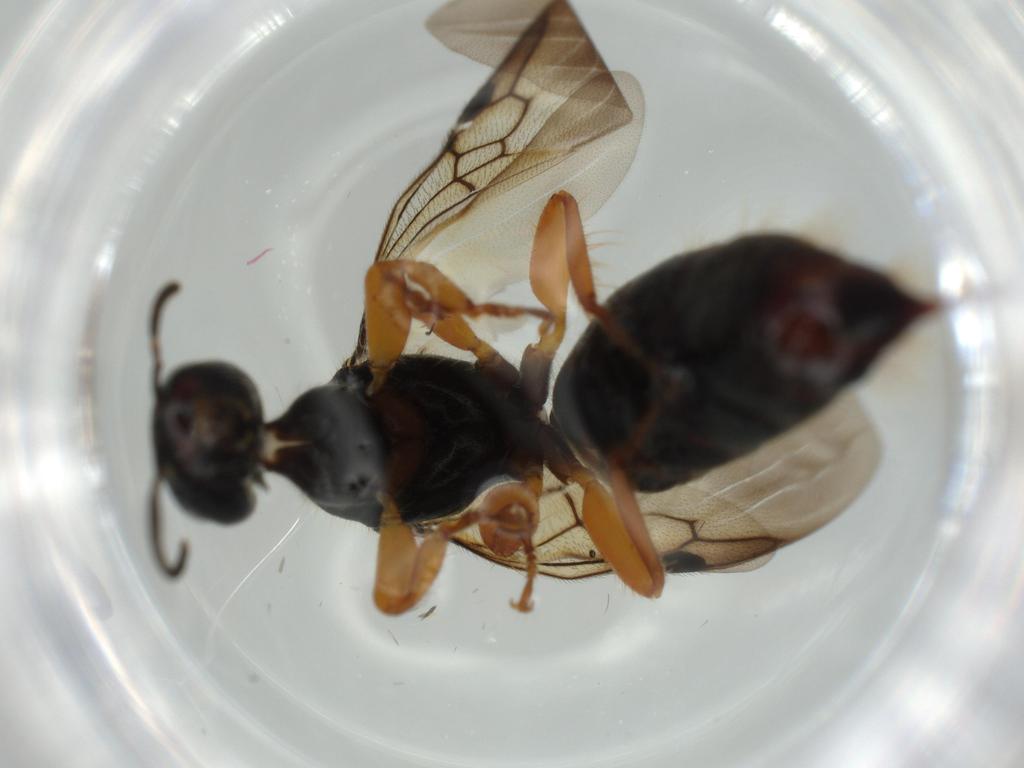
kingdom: Animalia
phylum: Arthropoda
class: Insecta
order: Hymenoptera
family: Scolebythidae
